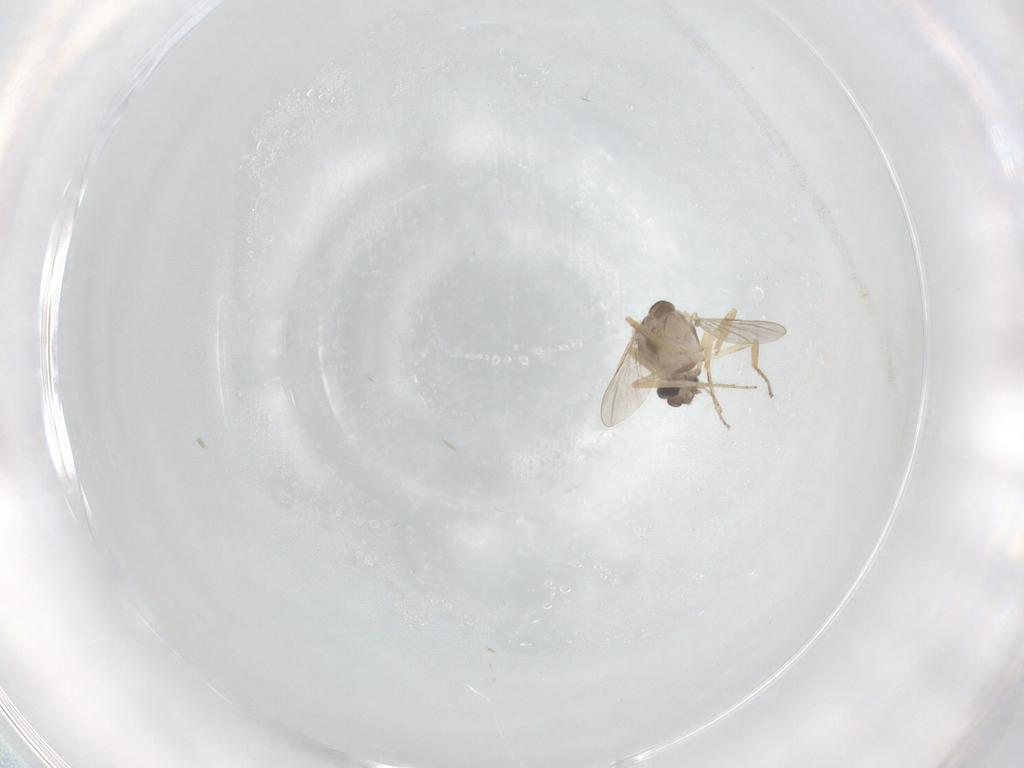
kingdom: Animalia
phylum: Arthropoda
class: Insecta
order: Diptera
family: Ceratopogonidae
